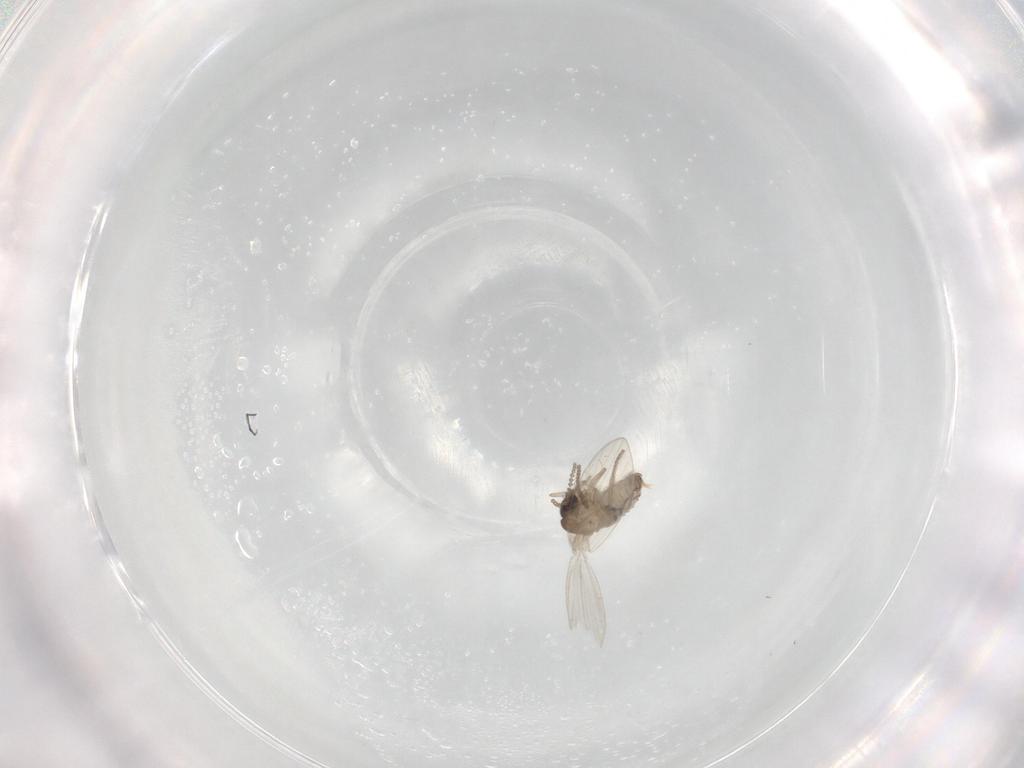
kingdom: Animalia
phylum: Arthropoda
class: Insecta
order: Diptera
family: Psychodidae
